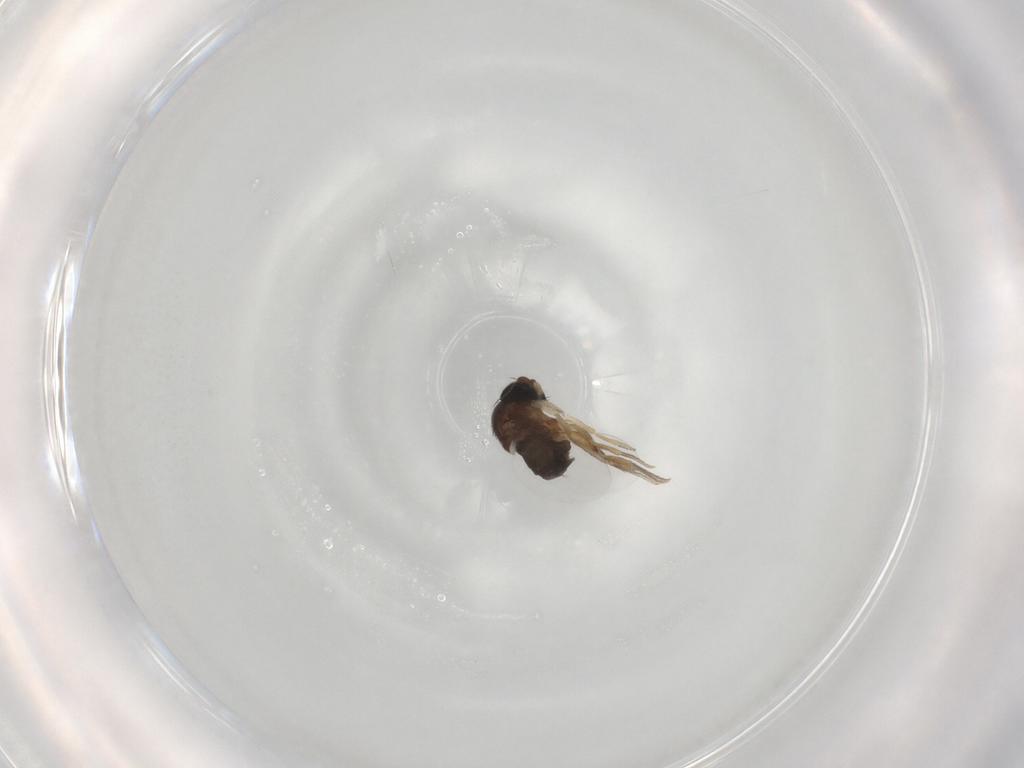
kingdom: Animalia
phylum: Arthropoda
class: Insecta
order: Diptera
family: Phoridae
